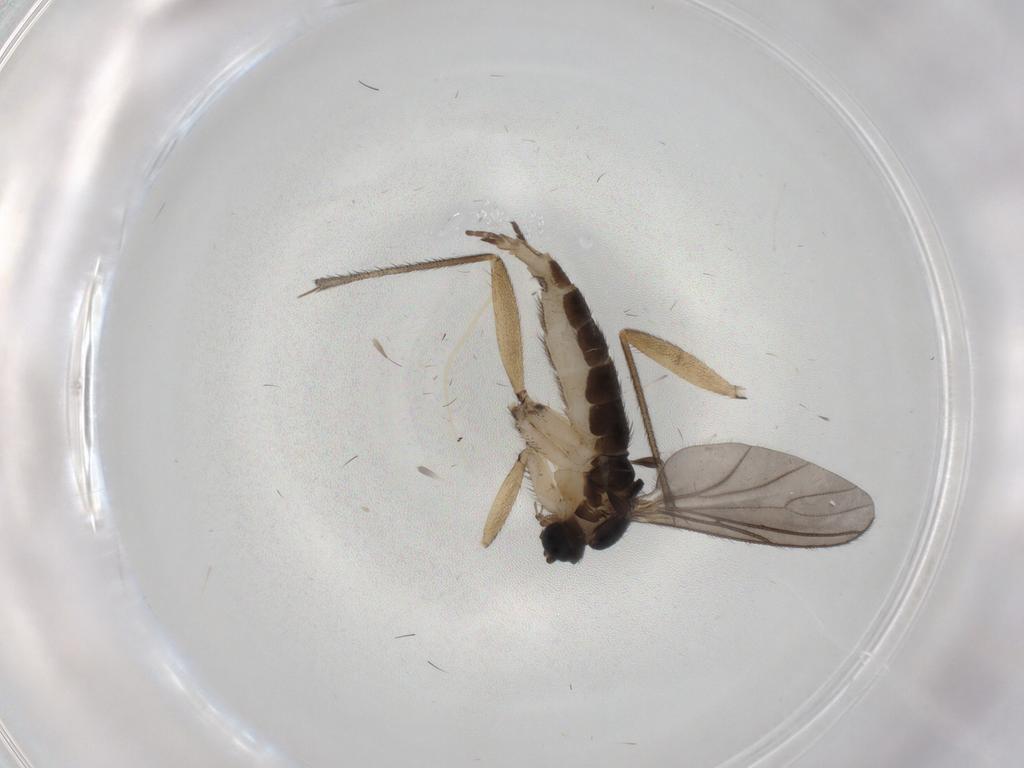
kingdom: Animalia
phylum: Arthropoda
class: Insecta
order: Diptera
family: Sciaridae
